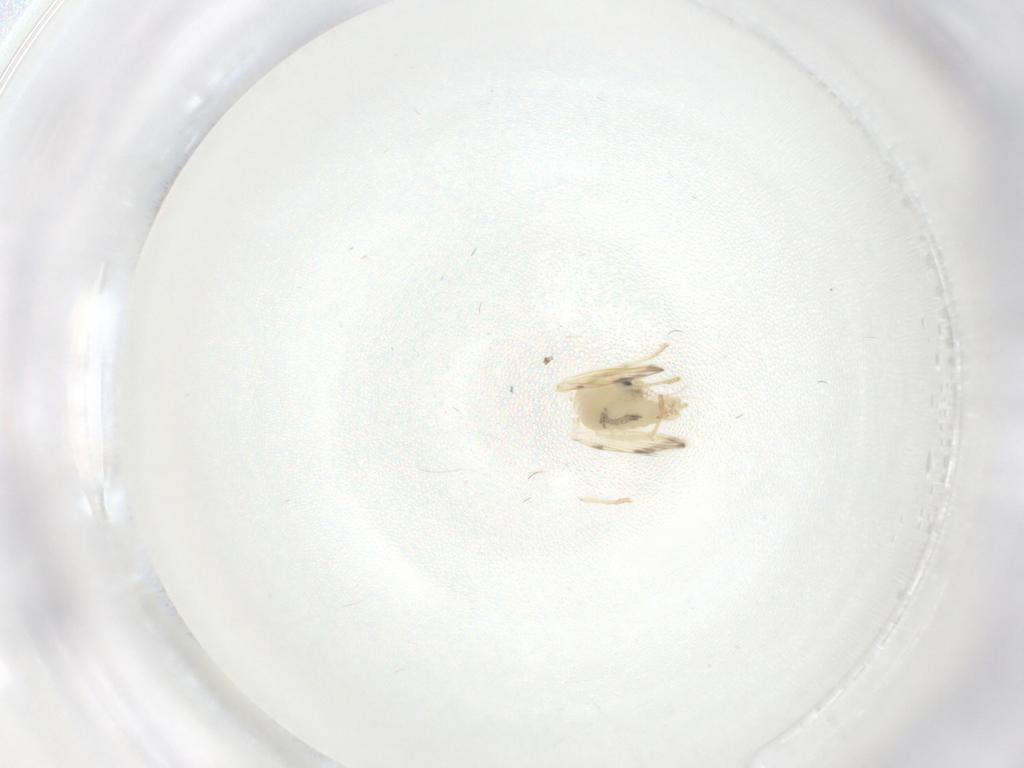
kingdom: Animalia
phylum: Arthropoda
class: Insecta
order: Diptera
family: Psychodidae
